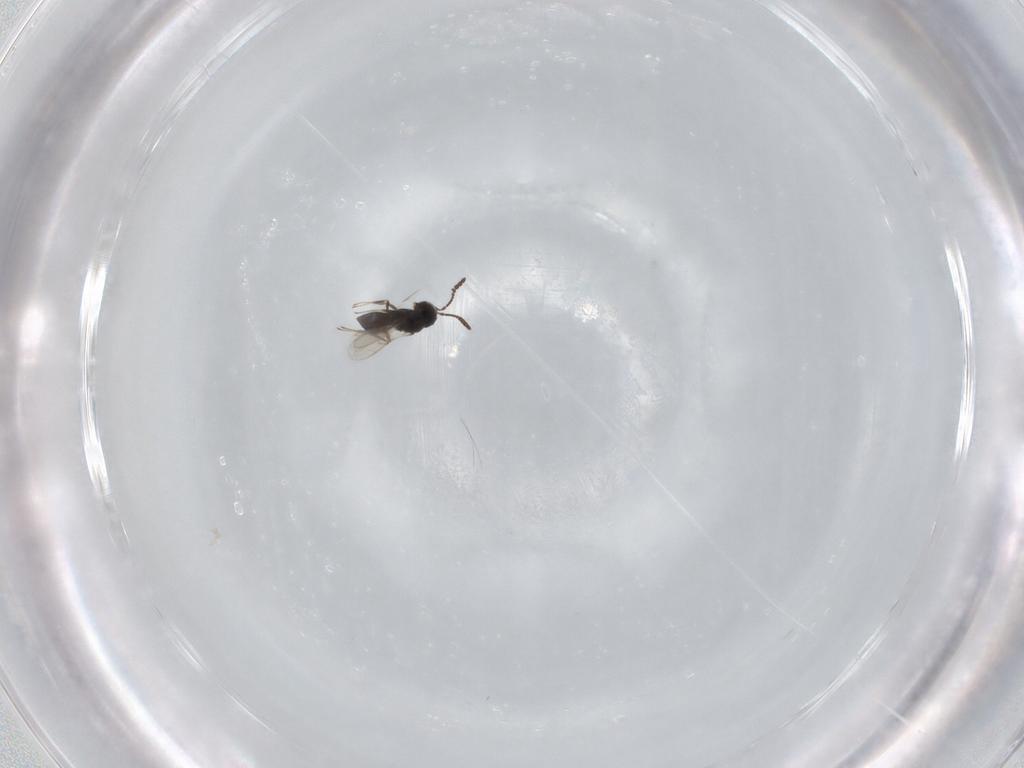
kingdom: Animalia
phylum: Arthropoda
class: Insecta
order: Hymenoptera
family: Scelionidae
